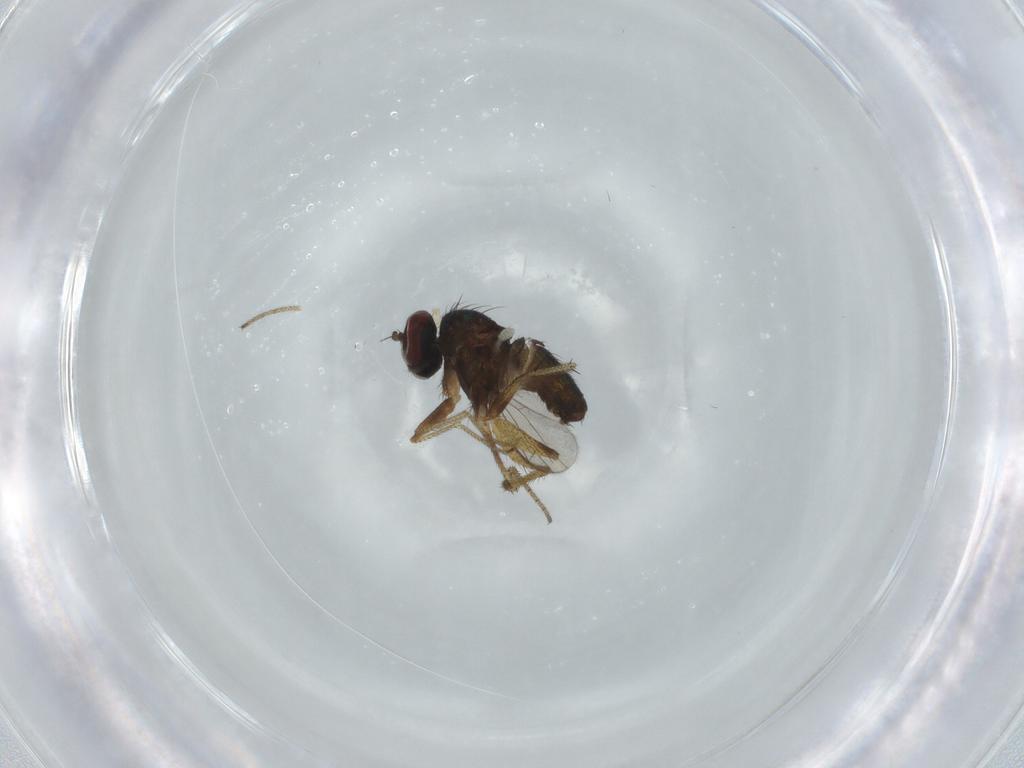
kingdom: Animalia
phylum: Arthropoda
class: Insecta
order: Diptera
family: Dolichopodidae
